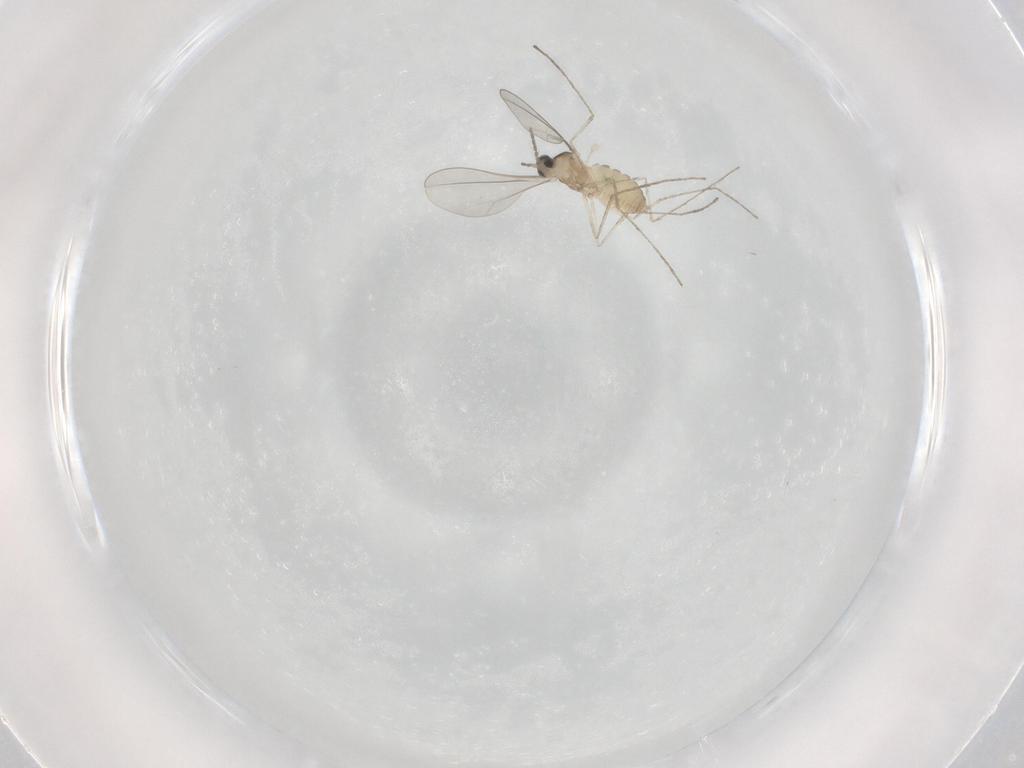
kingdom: Animalia
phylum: Arthropoda
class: Insecta
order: Diptera
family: Cecidomyiidae
